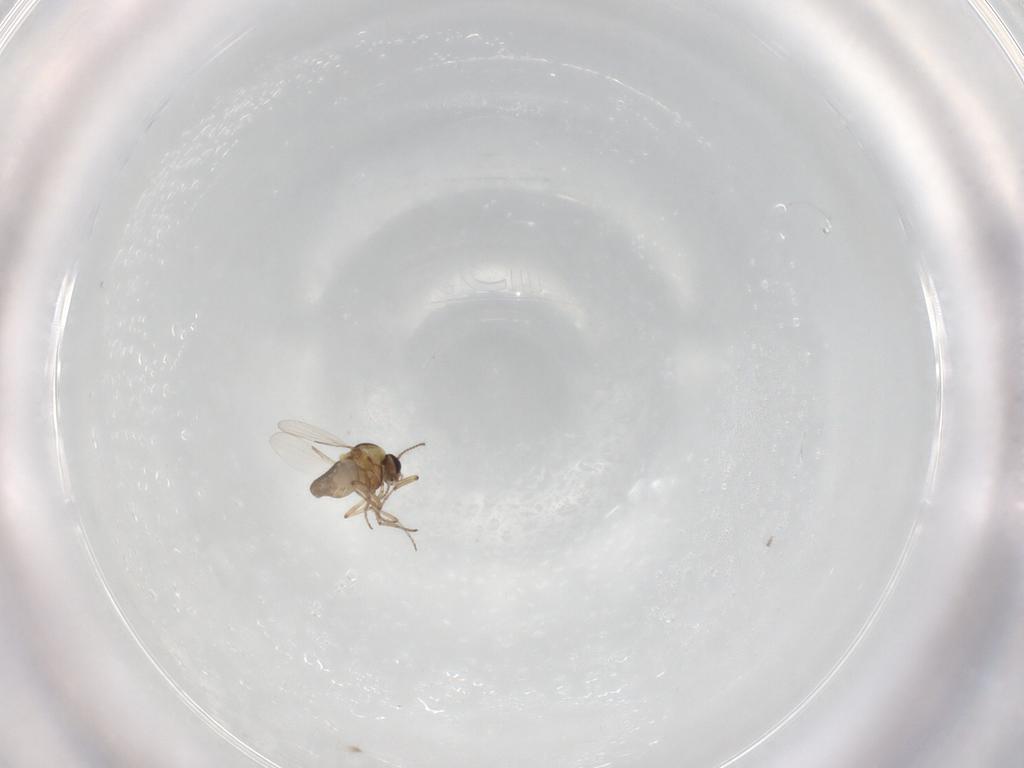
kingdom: Animalia
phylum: Arthropoda
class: Insecta
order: Diptera
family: Ceratopogonidae
